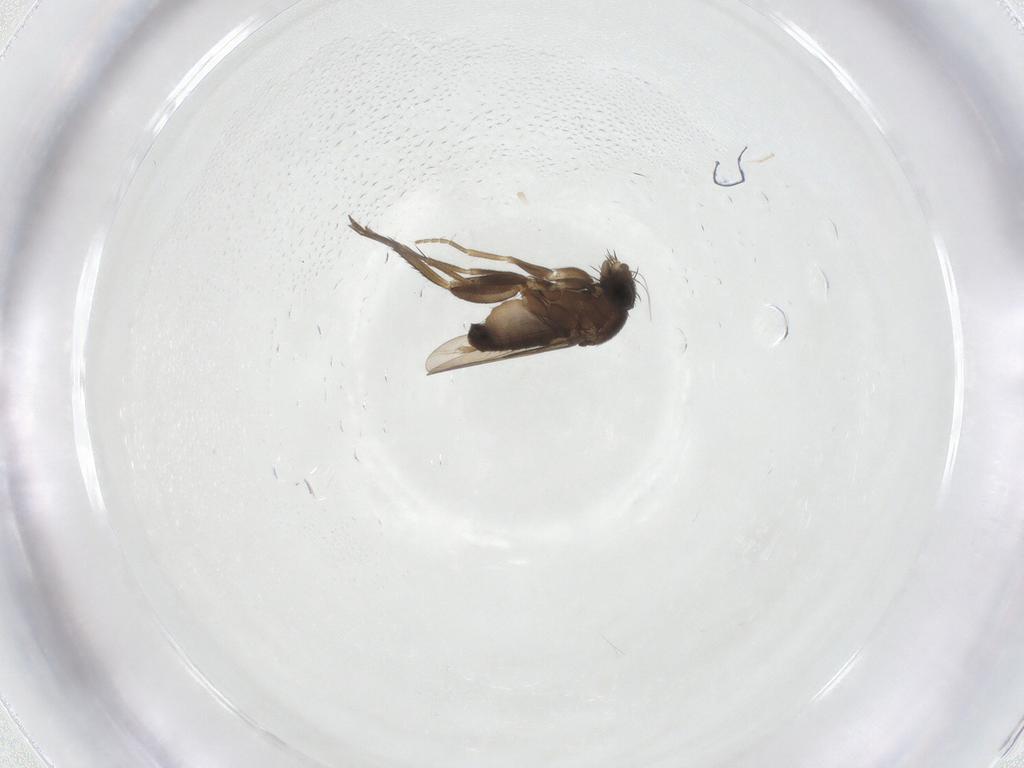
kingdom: Animalia
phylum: Arthropoda
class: Insecta
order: Diptera
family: Phoridae
